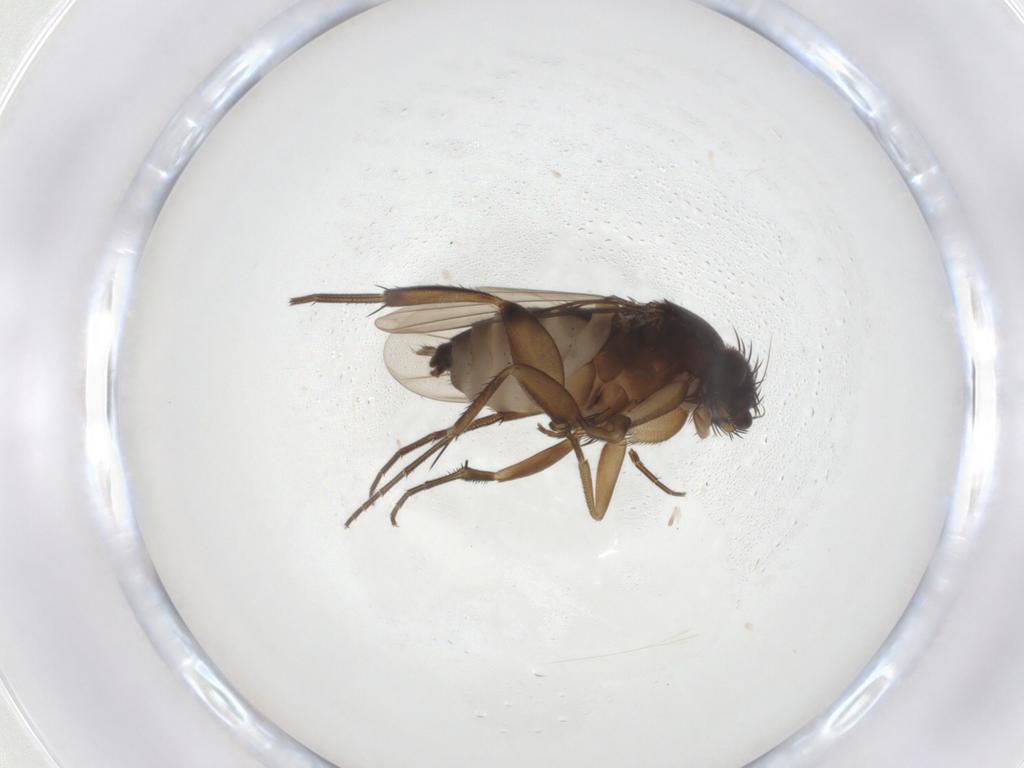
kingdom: Animalia
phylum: Arthropoda
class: Insecta
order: Diptera
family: Phoridae
